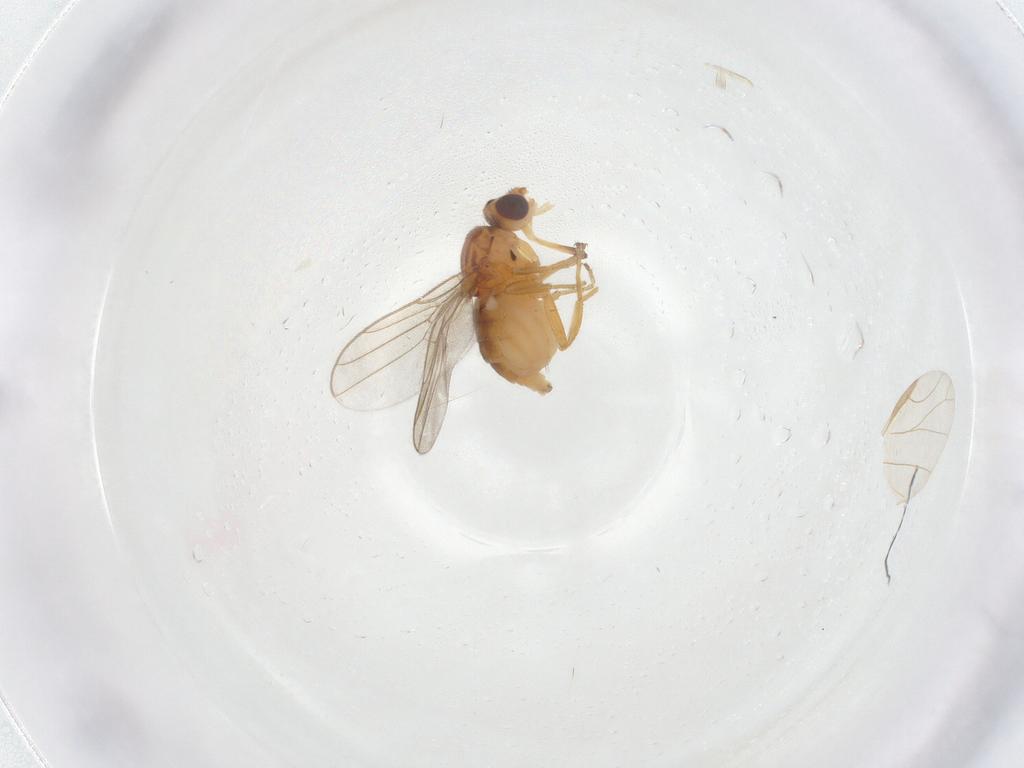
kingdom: Animalia
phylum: Arthropoda
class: Insecta
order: Diptera
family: Chloropidae
